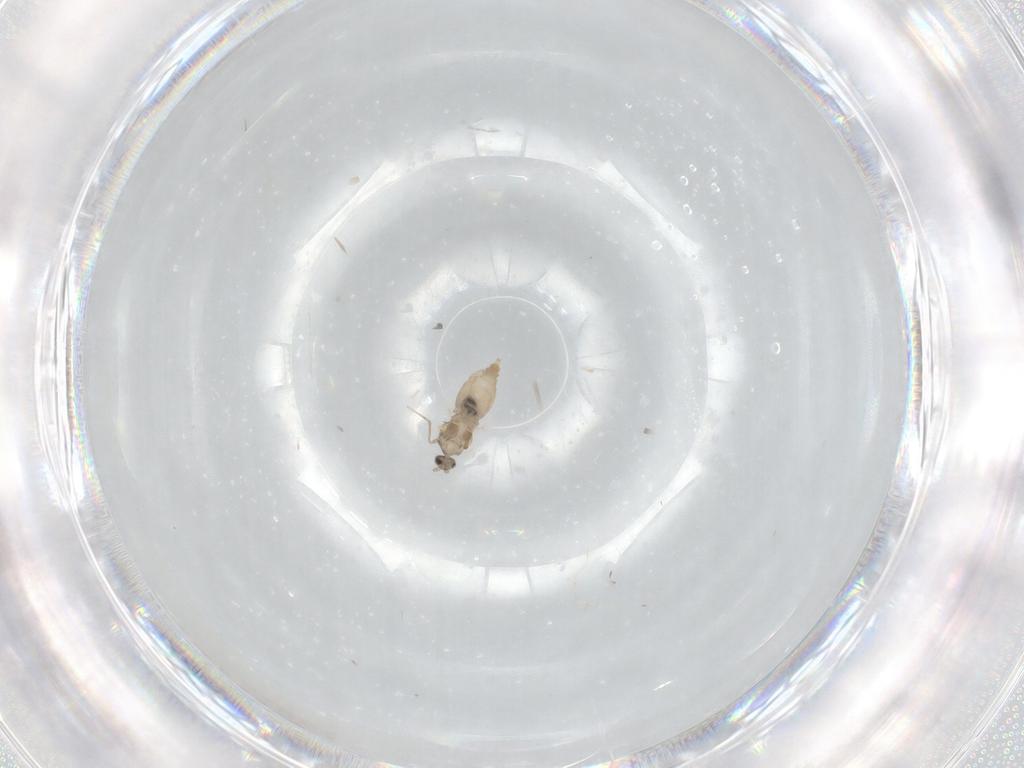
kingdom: Animalia
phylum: Arthropoda
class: Insecta
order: Diptera
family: Cecidomyiidae
